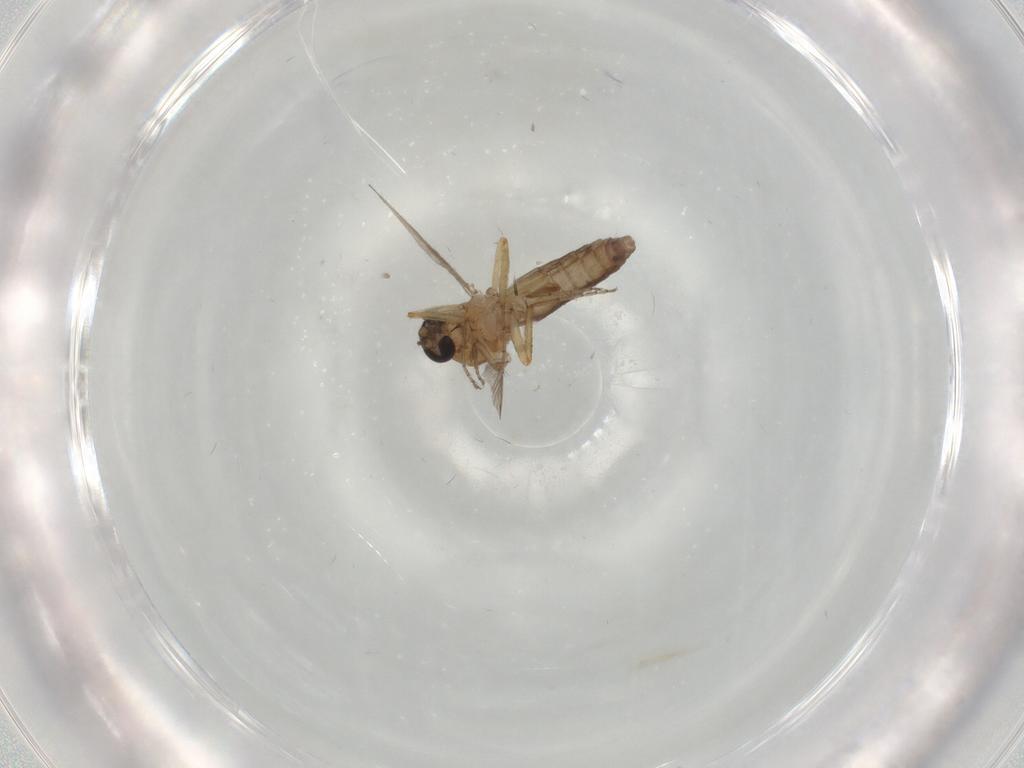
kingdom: Animalia
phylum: Arthropoda
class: Insecta
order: Diptera
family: Ceratopogonidae
